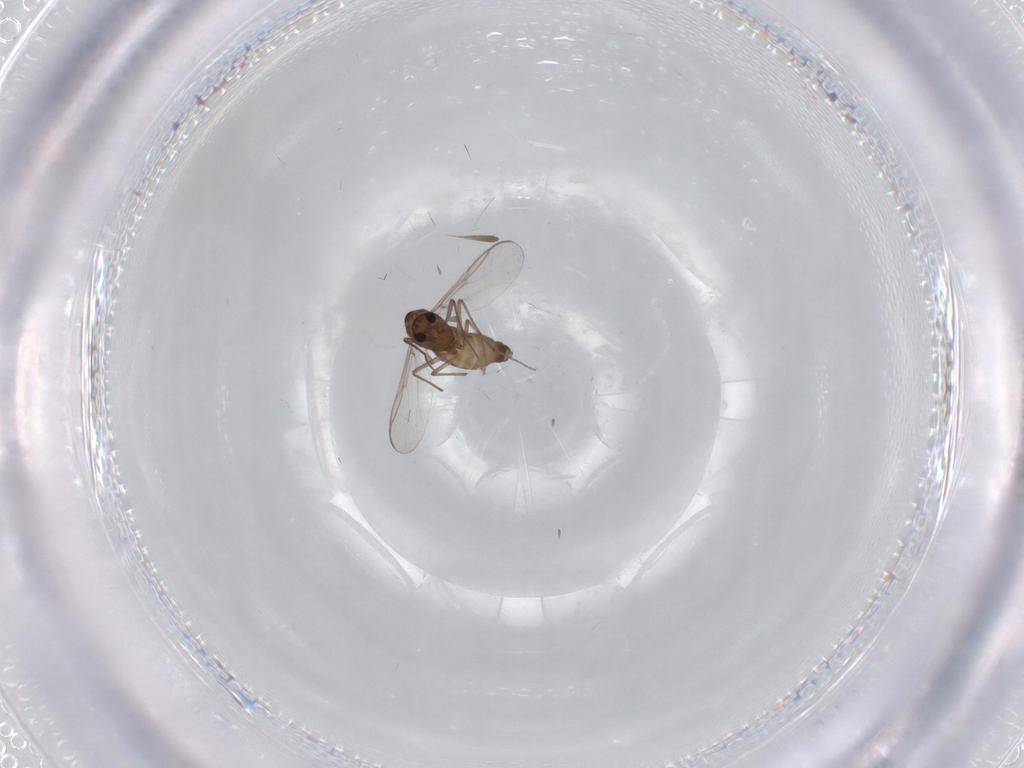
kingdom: Animalia
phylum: Arthropoda
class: Insecta
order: Diptera
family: Chironomidae
